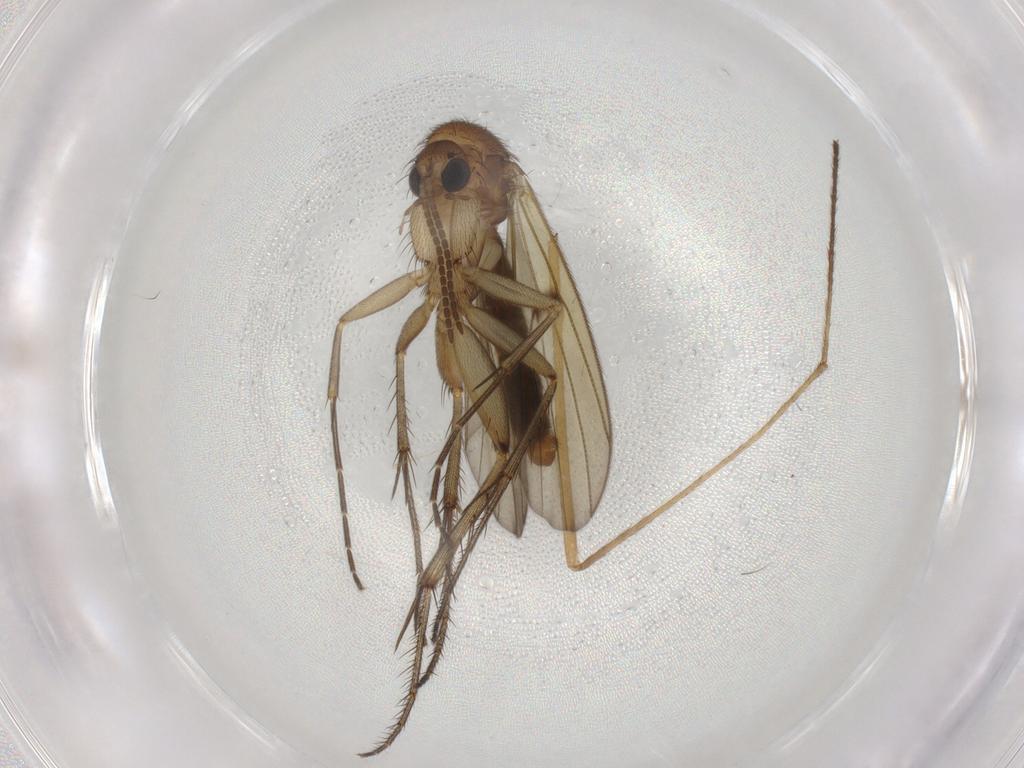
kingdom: Animalia
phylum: Arthropoda
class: Insecta
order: Diptera
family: Mycetophilidae
